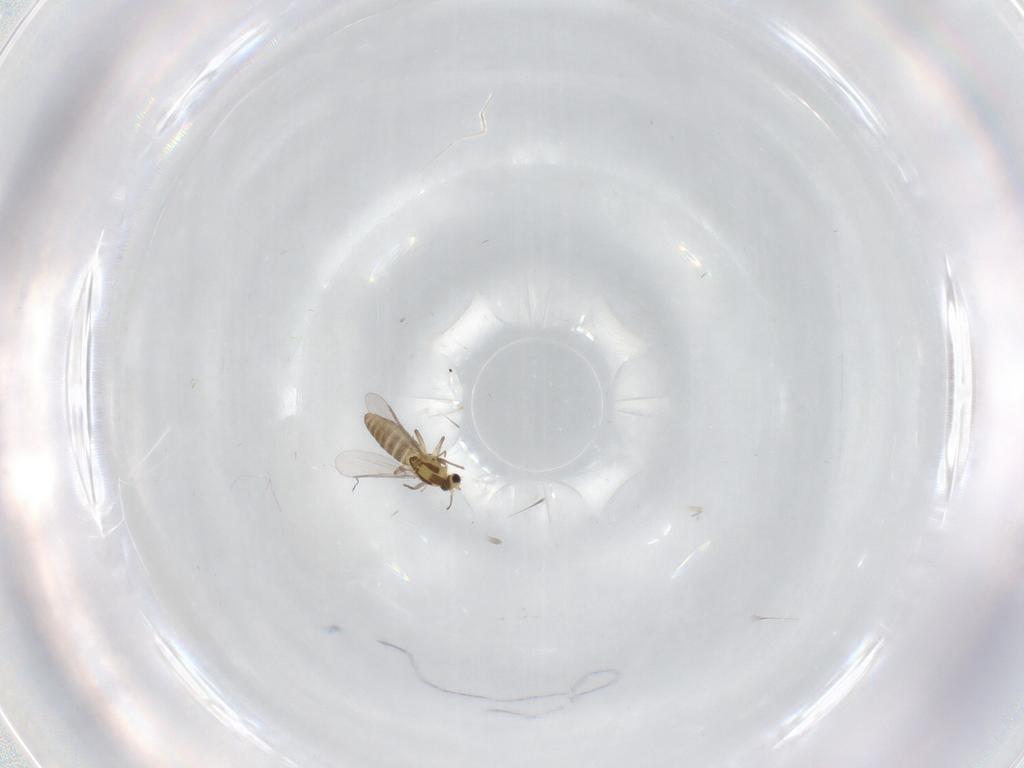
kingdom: Animalia
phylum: Arthropoda
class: Insecta
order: Diptera
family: Chironomidae
